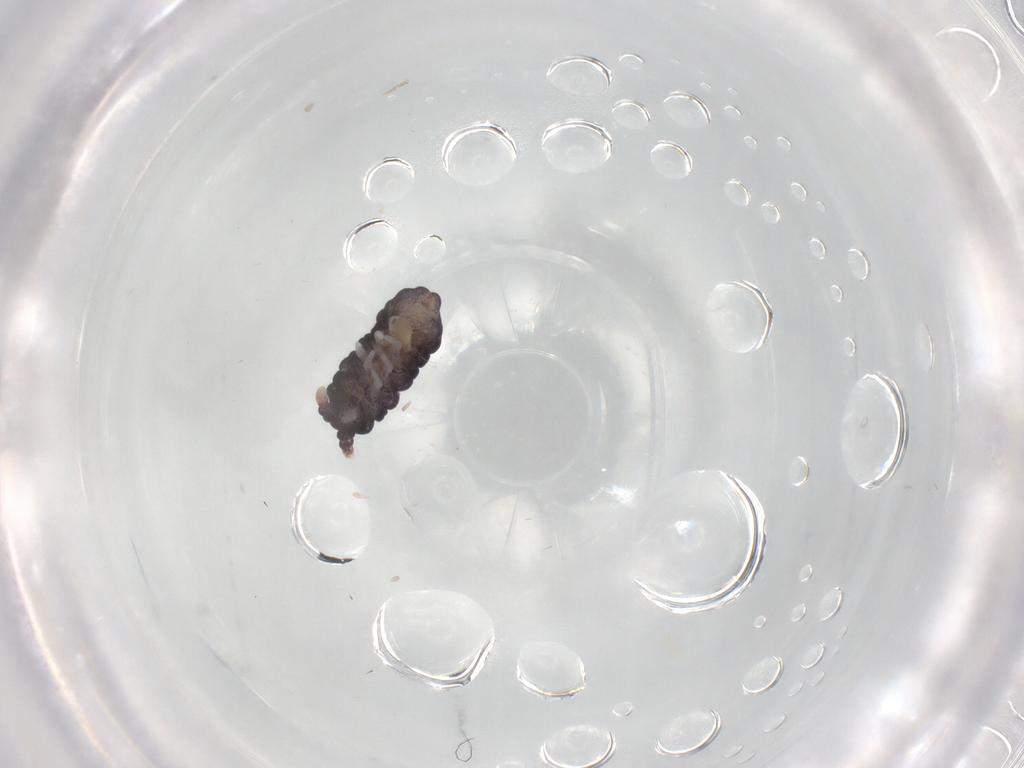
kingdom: Animalia
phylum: Arthropoda
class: Collembola
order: Poduromorpha
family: Neanuridae
